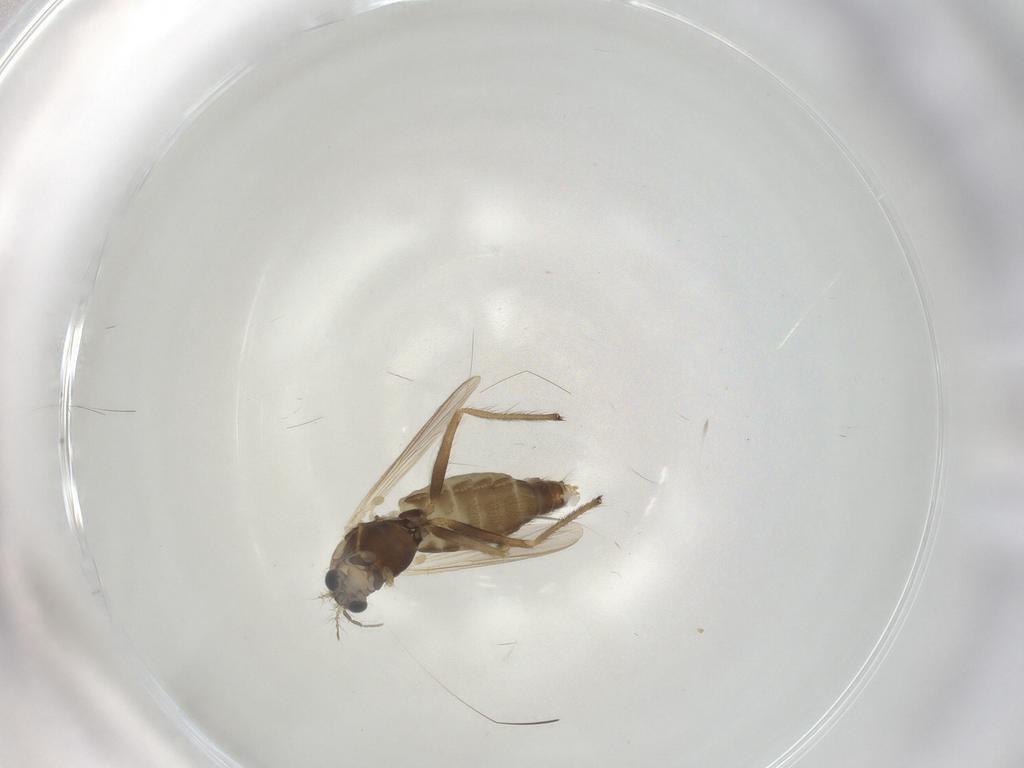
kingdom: Animalia
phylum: Arthropoda
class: Insecta
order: Diptera
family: Chironomidae
